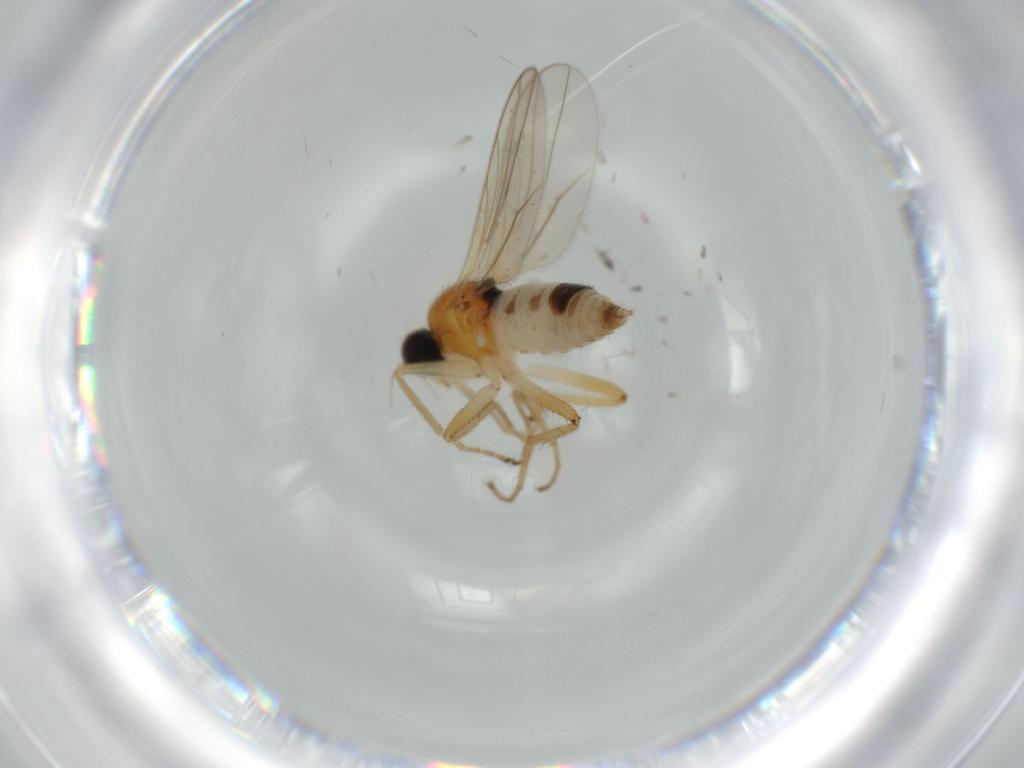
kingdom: Animalia
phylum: Arthropoda
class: Insecta
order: Diptera
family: Hybotidae
